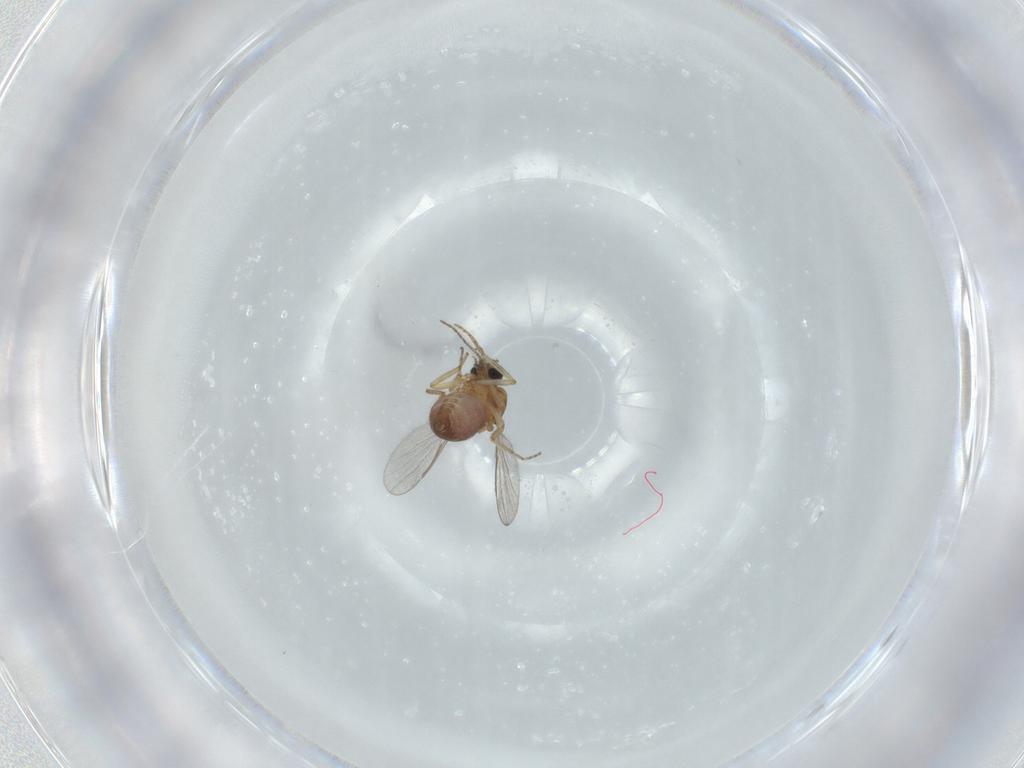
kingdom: Animalia
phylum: Arthropoda
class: Insecta
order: Diptera
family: Ceratopogonidae
